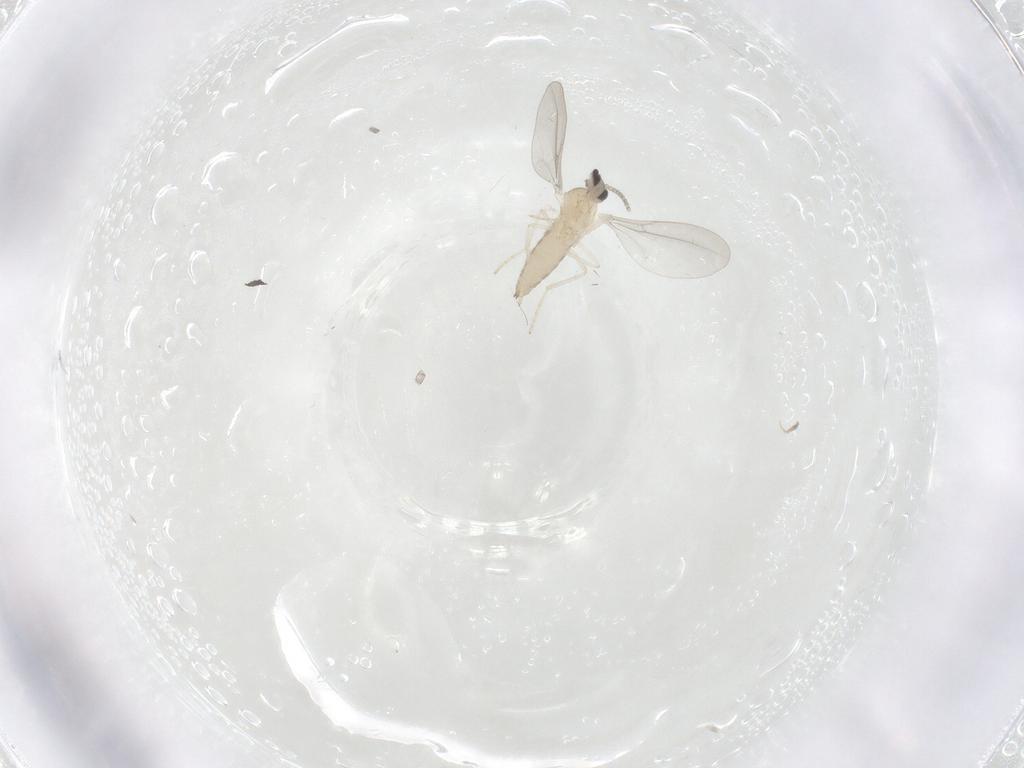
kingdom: Animalia
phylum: Arthropoda
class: Insecta
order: Diptera
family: Cecidomyiidae
